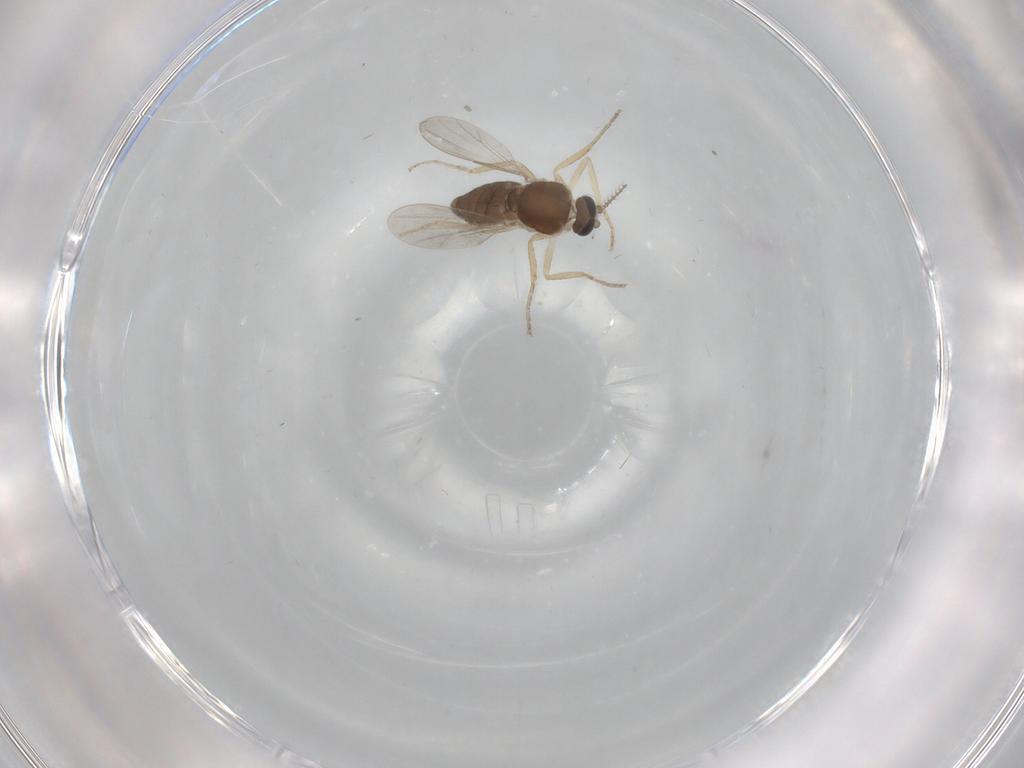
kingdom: Animalia
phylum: Arthropoda
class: Insecta
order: Diptera
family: Ceratopogonidae
